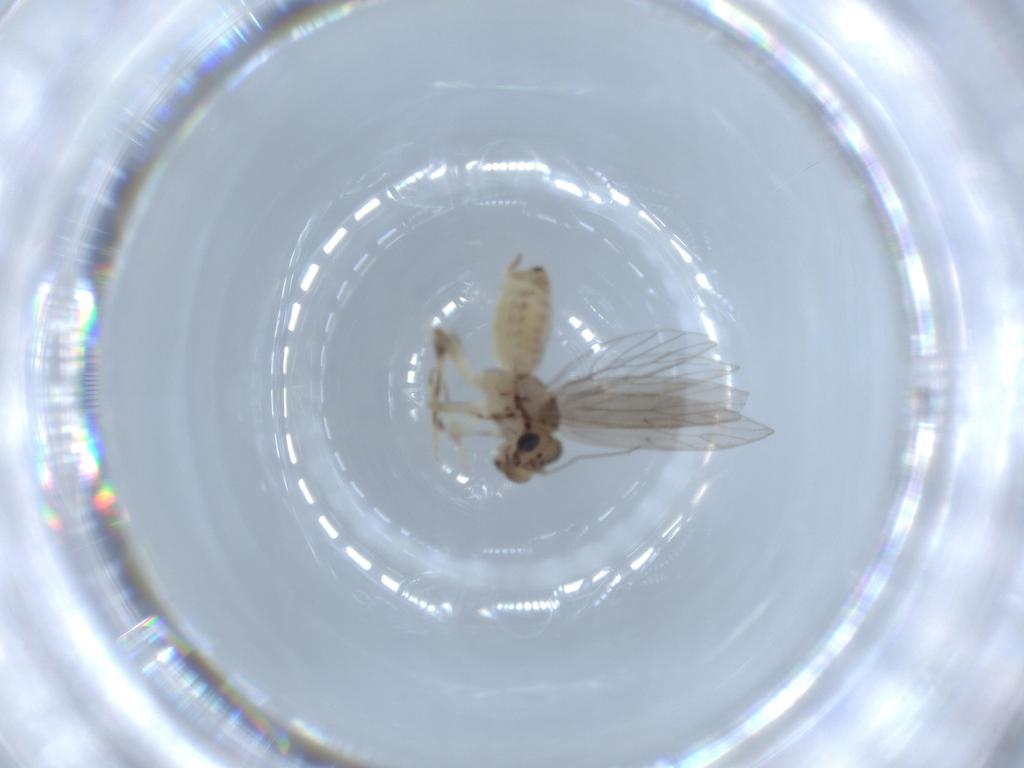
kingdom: Animalia
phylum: Arthropoda
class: Insecta
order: Psocodea
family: Lepidopsocidae
